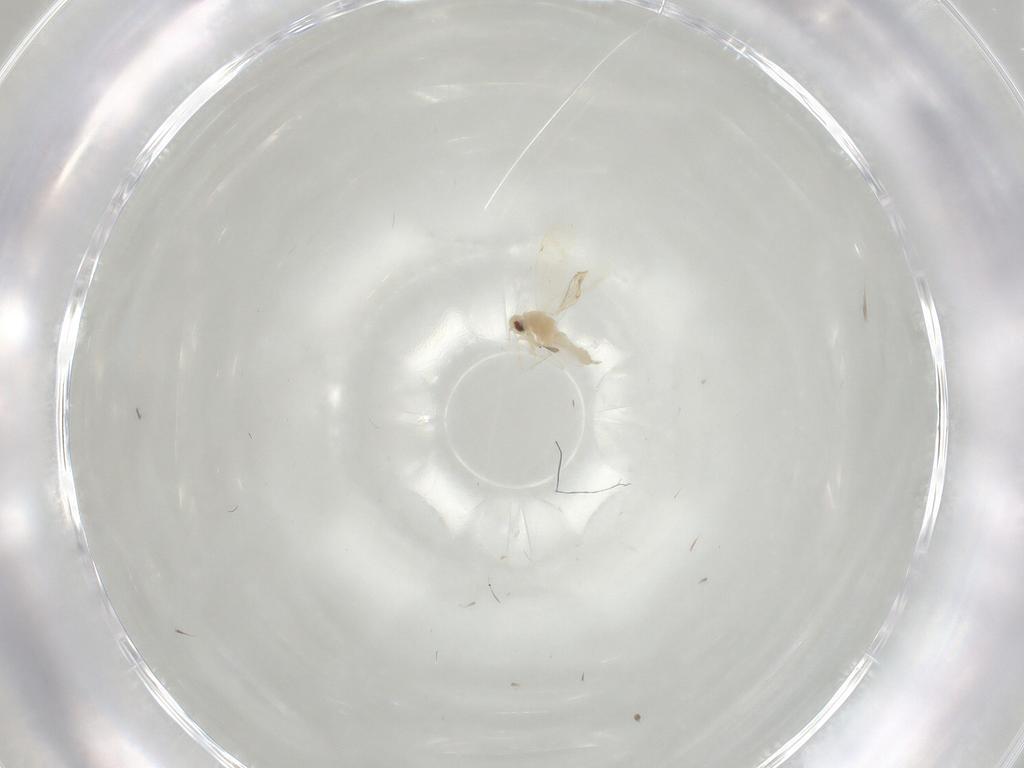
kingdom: Animalia
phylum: Arthropoda
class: Insecta
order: Hemiptera
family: Aleyrodidae
